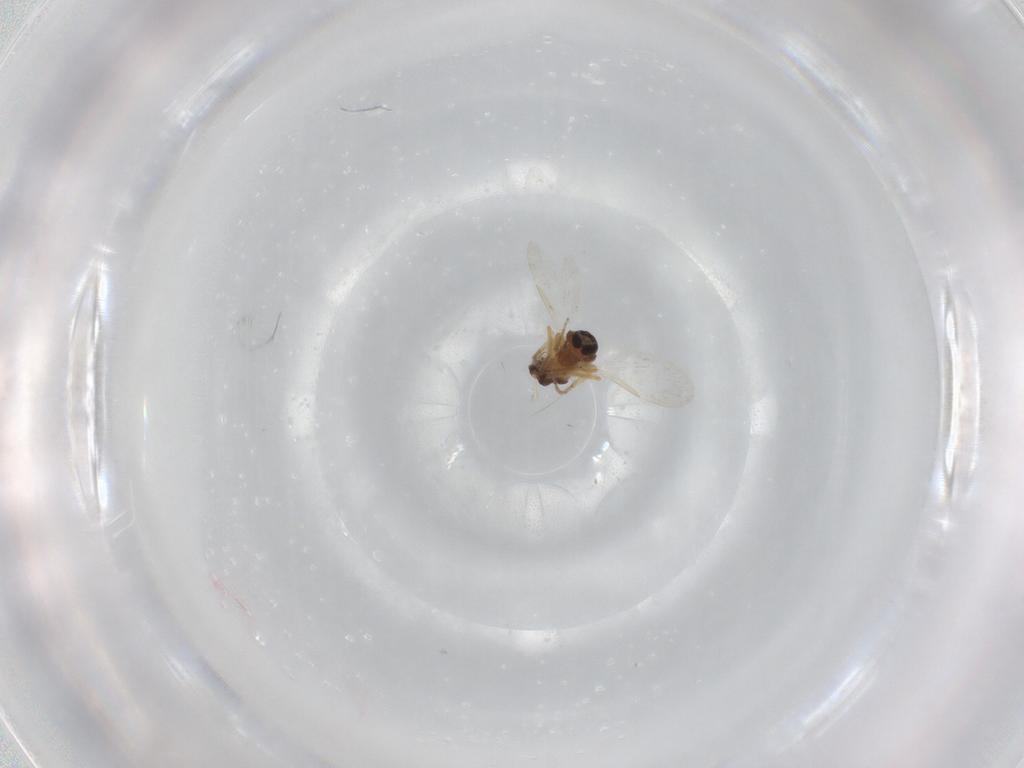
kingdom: Animalia
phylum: Arthropoda
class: Insecta
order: Diptera
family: Ceratopogonidae
